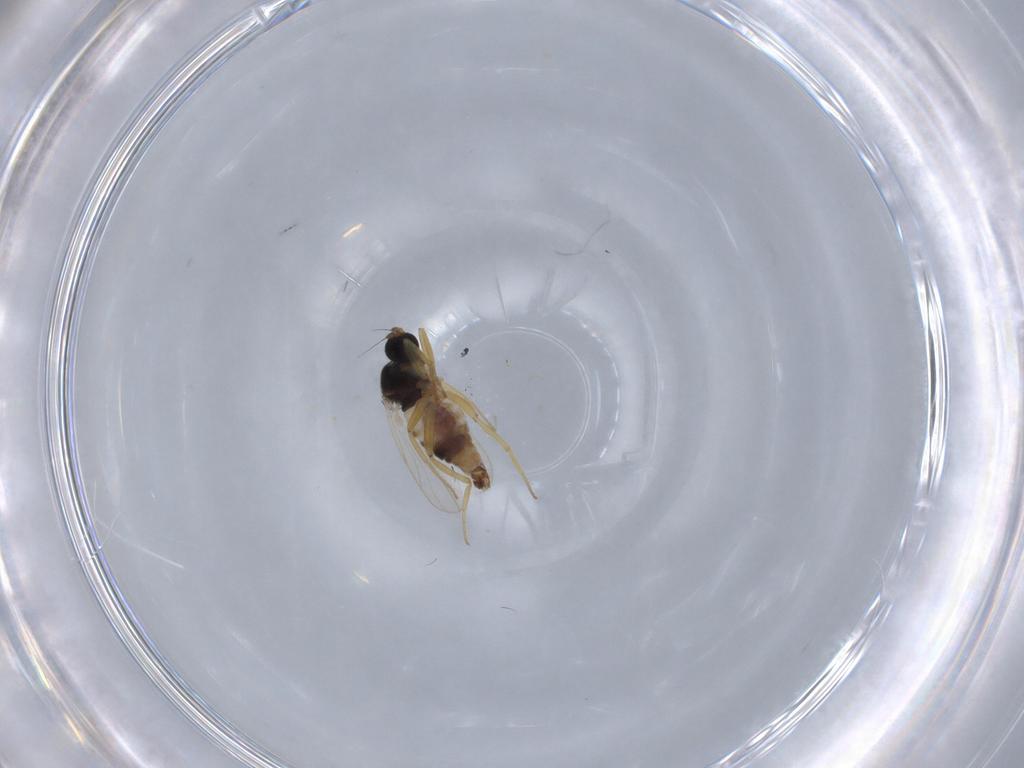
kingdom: Animalia
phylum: Arthropoda
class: Insecta
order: Diptera
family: Hybotidae
